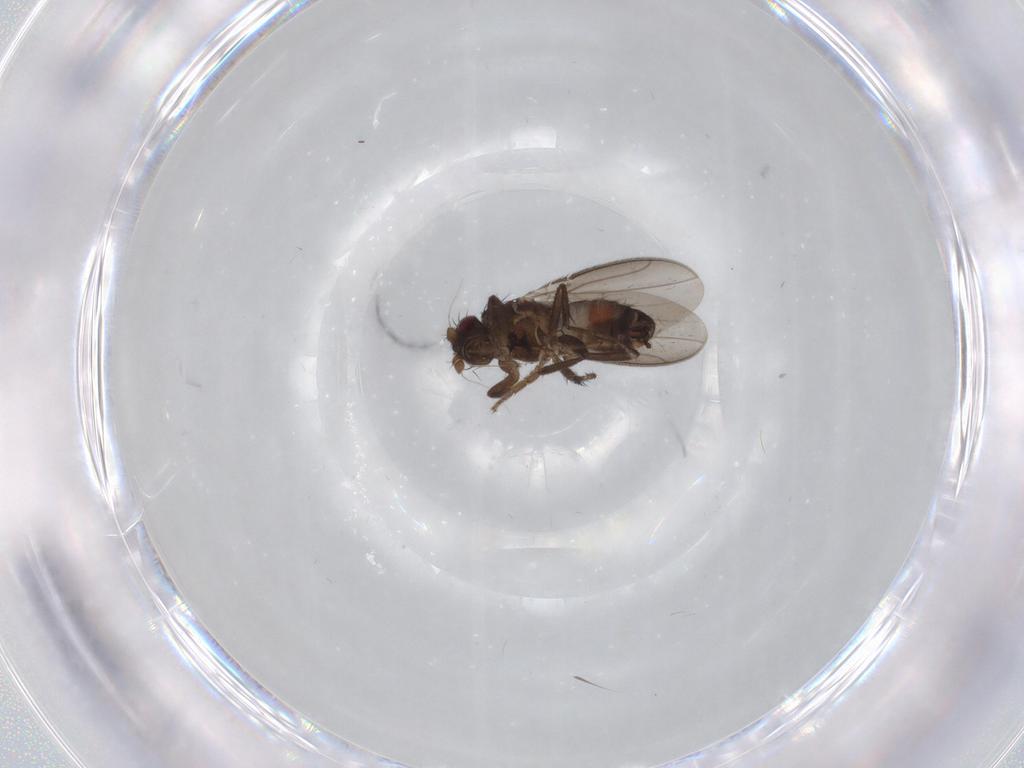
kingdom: Animalia
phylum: Arthropoda
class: Insecta
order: Diptera
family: Sphaeroceridae
